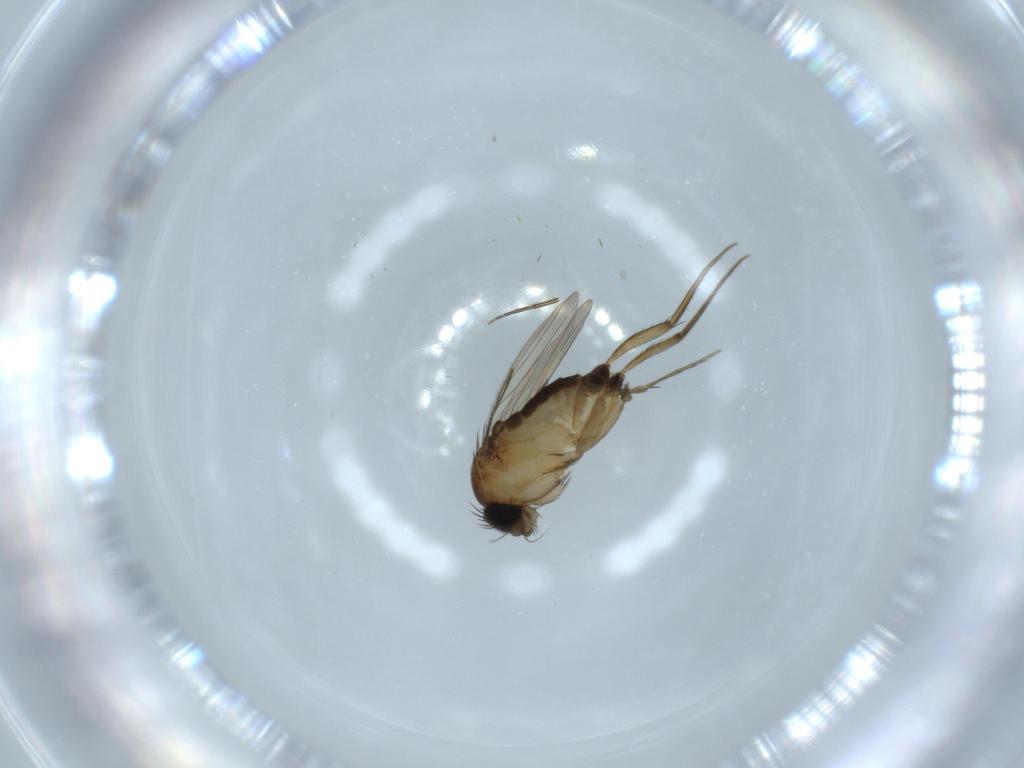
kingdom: Animalia
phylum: Arthropoda
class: Insecta
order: Diptera
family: Phoridae
